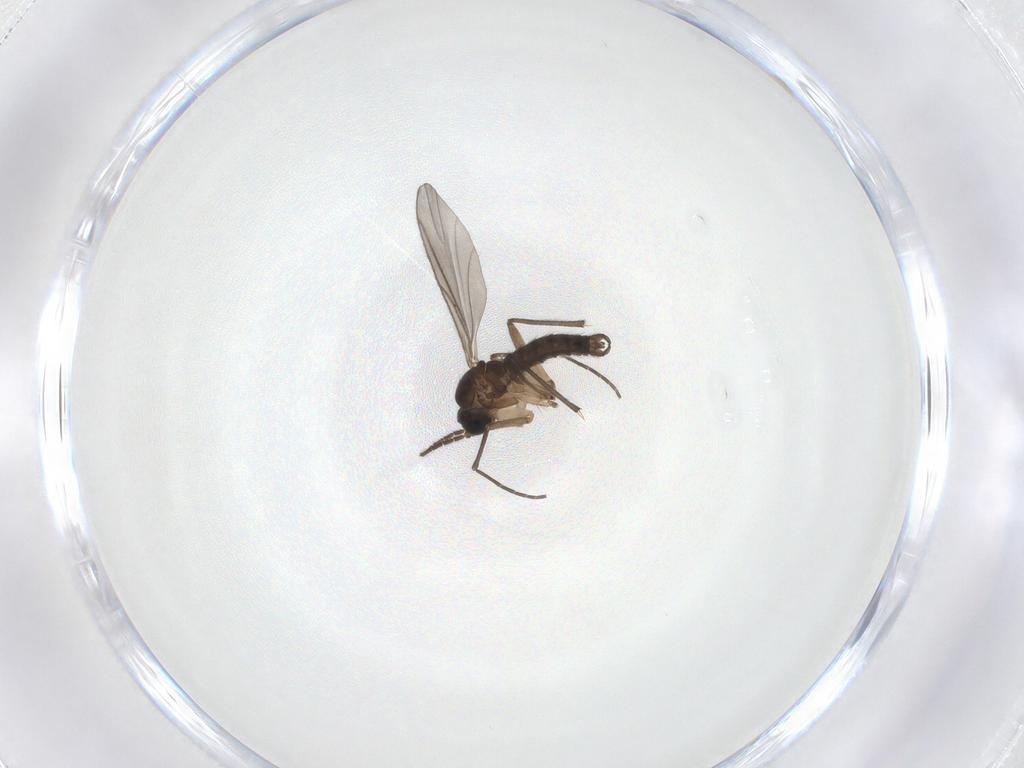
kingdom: Animalia
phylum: Arthropoda
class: Insecta
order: Diptera
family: Sciaridae
